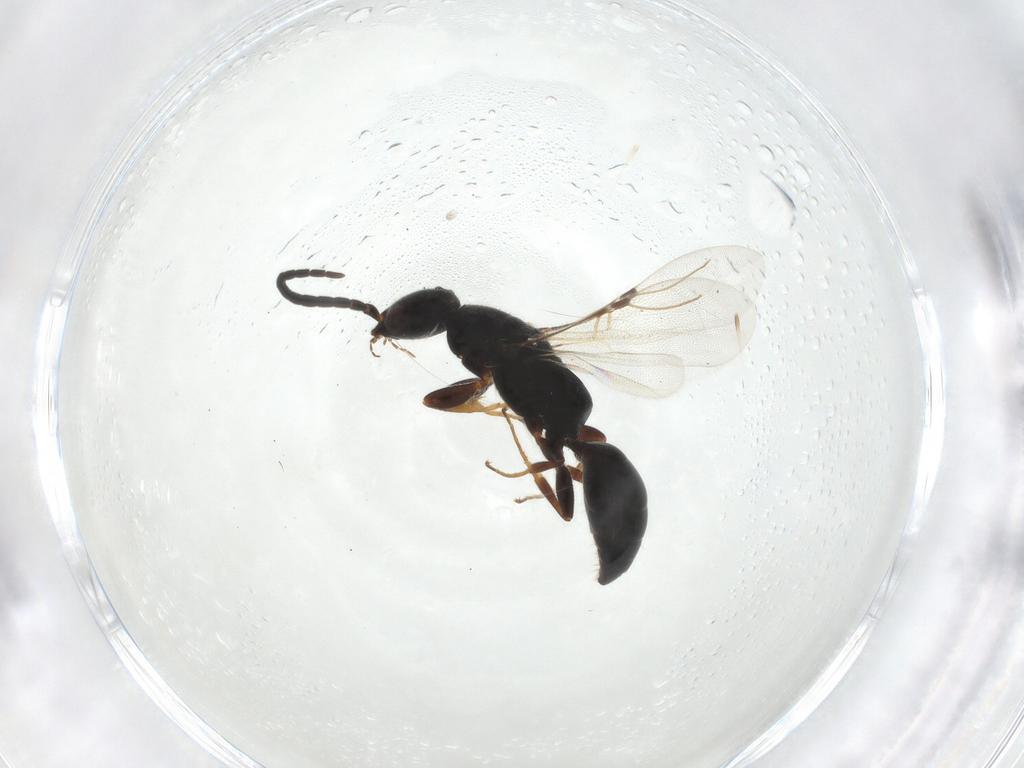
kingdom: Animalia
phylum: Arthropoda
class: Insecta
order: Hymenoptera
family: Bethylidae
